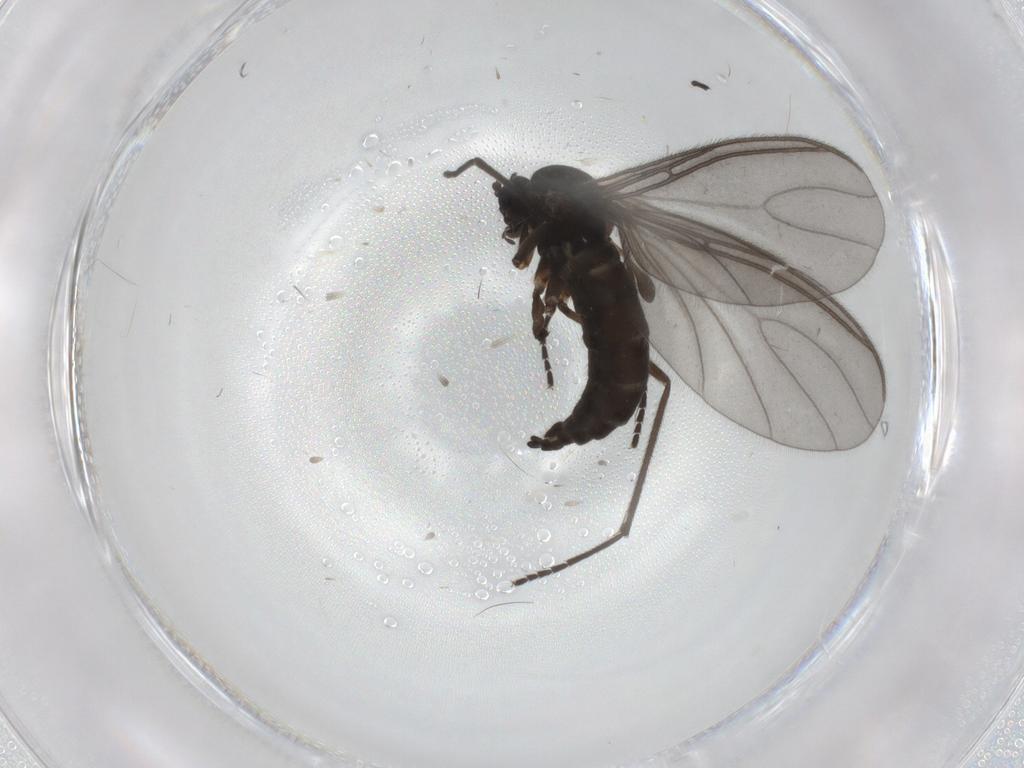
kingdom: Animalia
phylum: Arthropoda
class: Insecta
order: Diptera
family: Sciaridae
